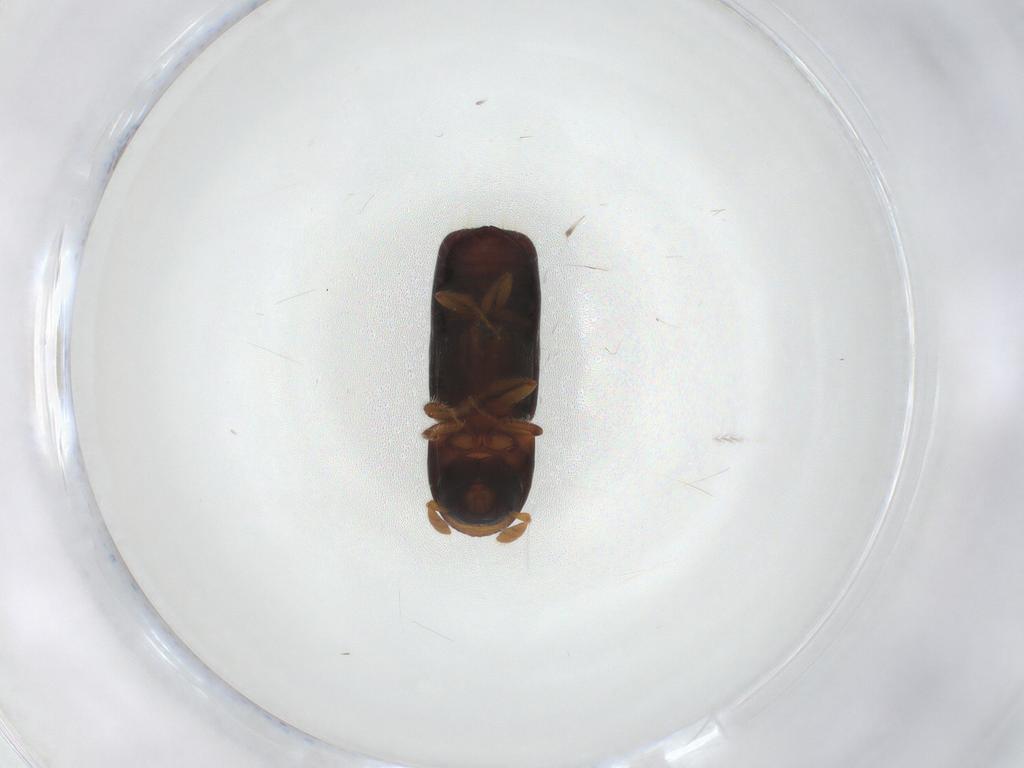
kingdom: Animalia
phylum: Arthropoda
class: Insecta
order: Coleoptera
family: Curculionidae
